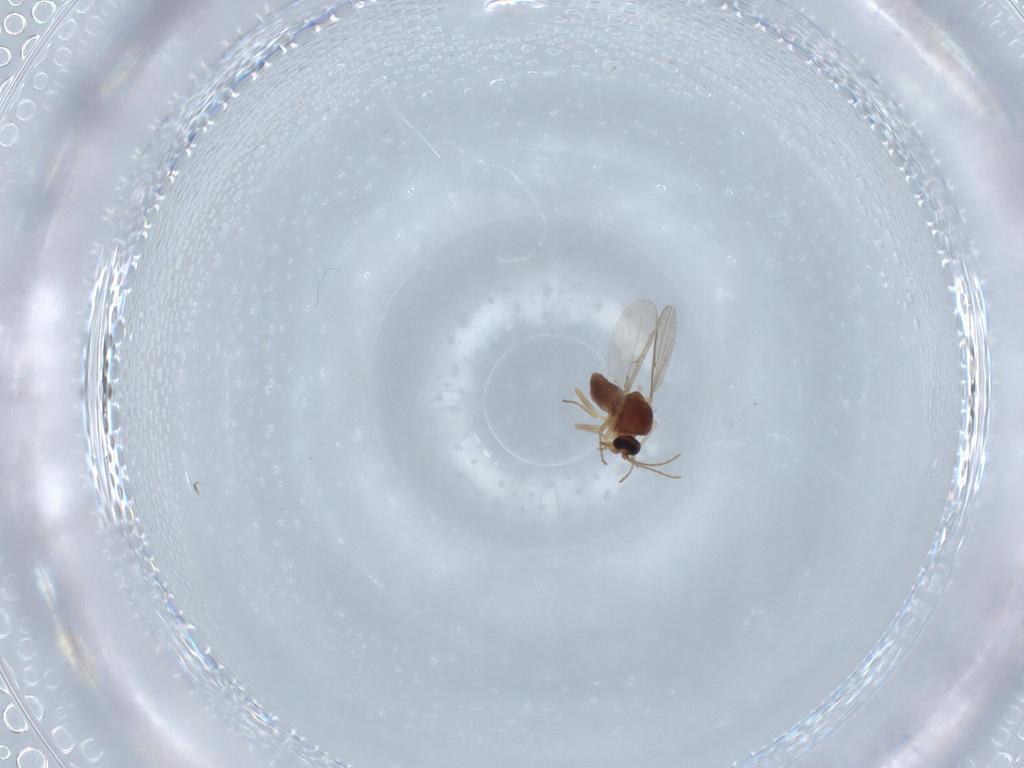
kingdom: Animalia
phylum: Arthropoda
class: Insecta
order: Diptera
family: Ceratopogonidae
